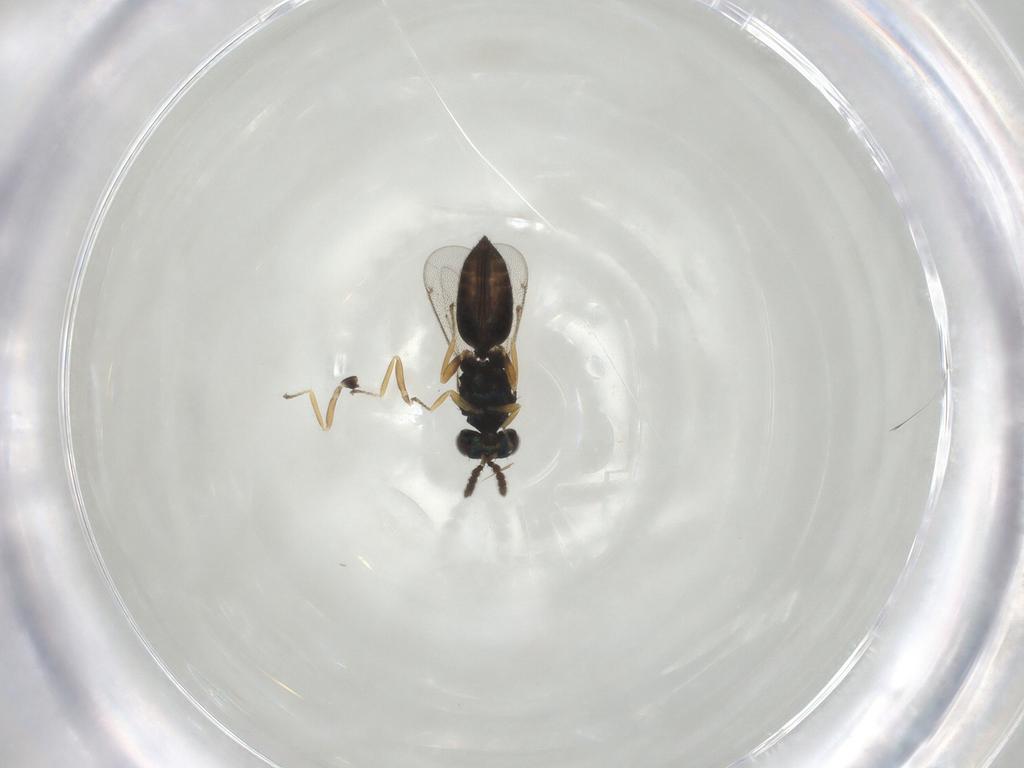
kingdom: Animalia
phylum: Arthropoda
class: Insecta
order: Hymenoptera
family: Eulophidae
